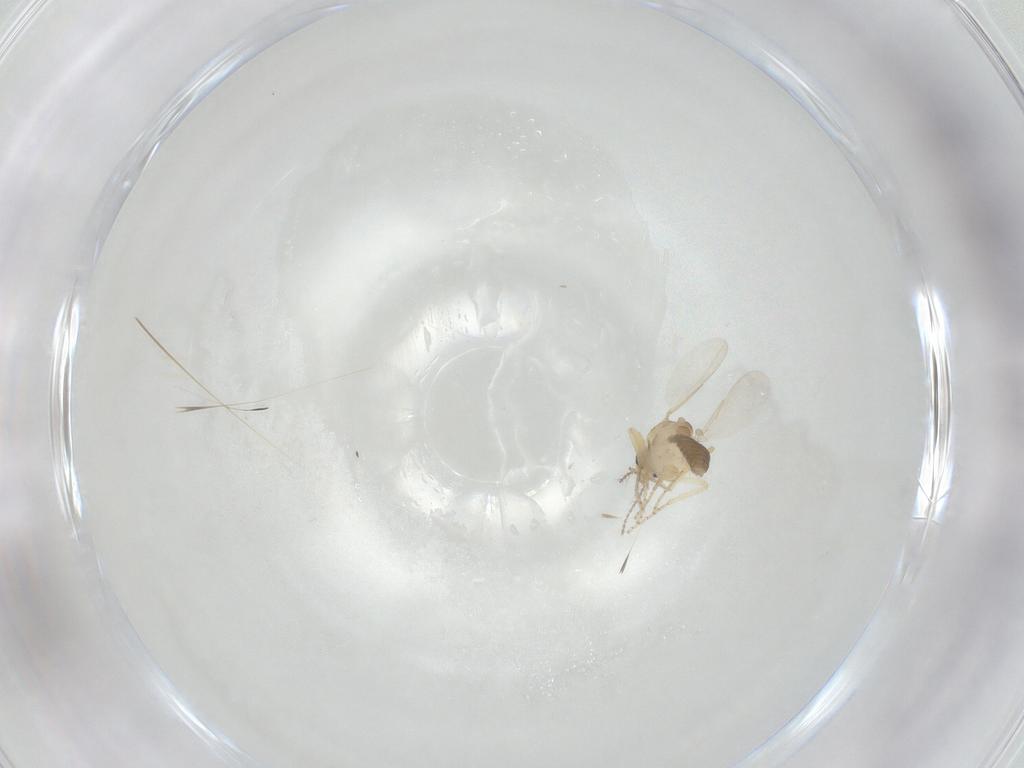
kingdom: Animalia
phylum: Arthropoda
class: Insecta
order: Diptera
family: Ceratopogonidae
